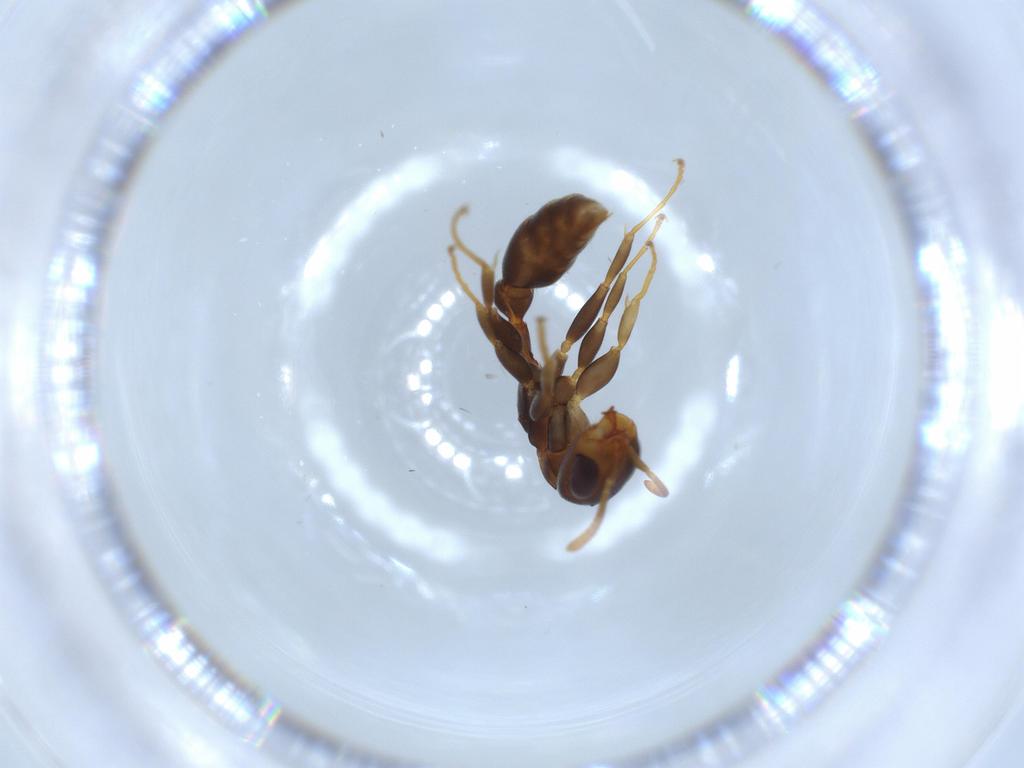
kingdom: Animalia
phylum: Arthropoda
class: Insecta
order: Hymenoptera
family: Formicidae
